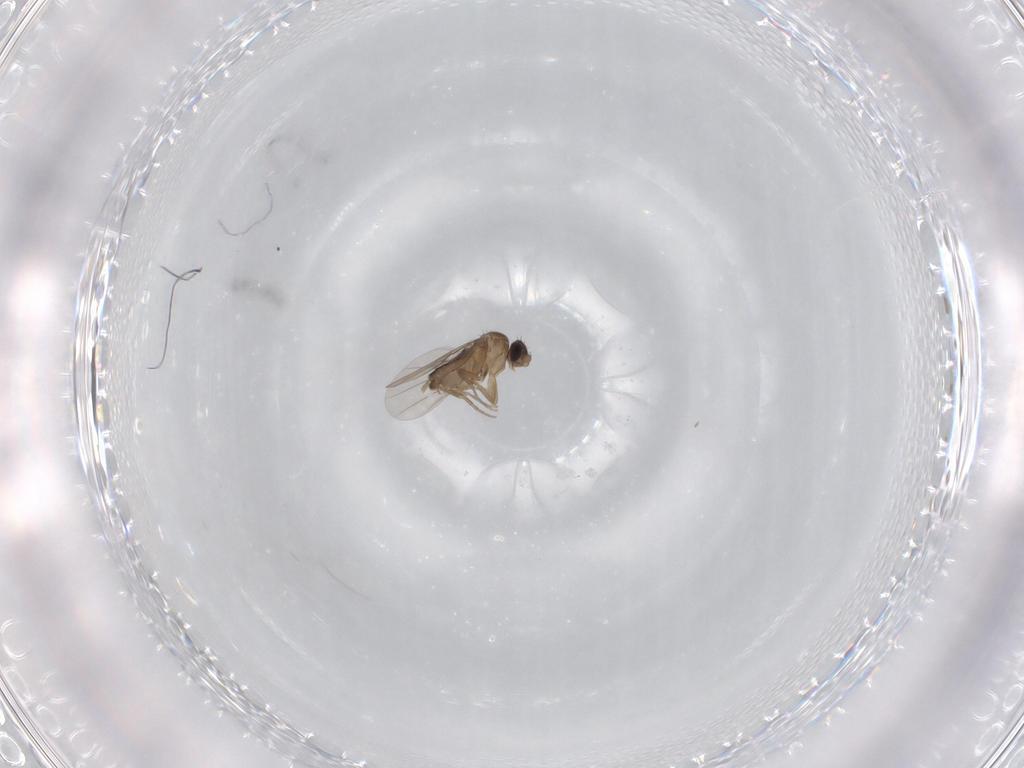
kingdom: Animalia
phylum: Arthropoda
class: Insecta
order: Diptera
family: Phoridae
